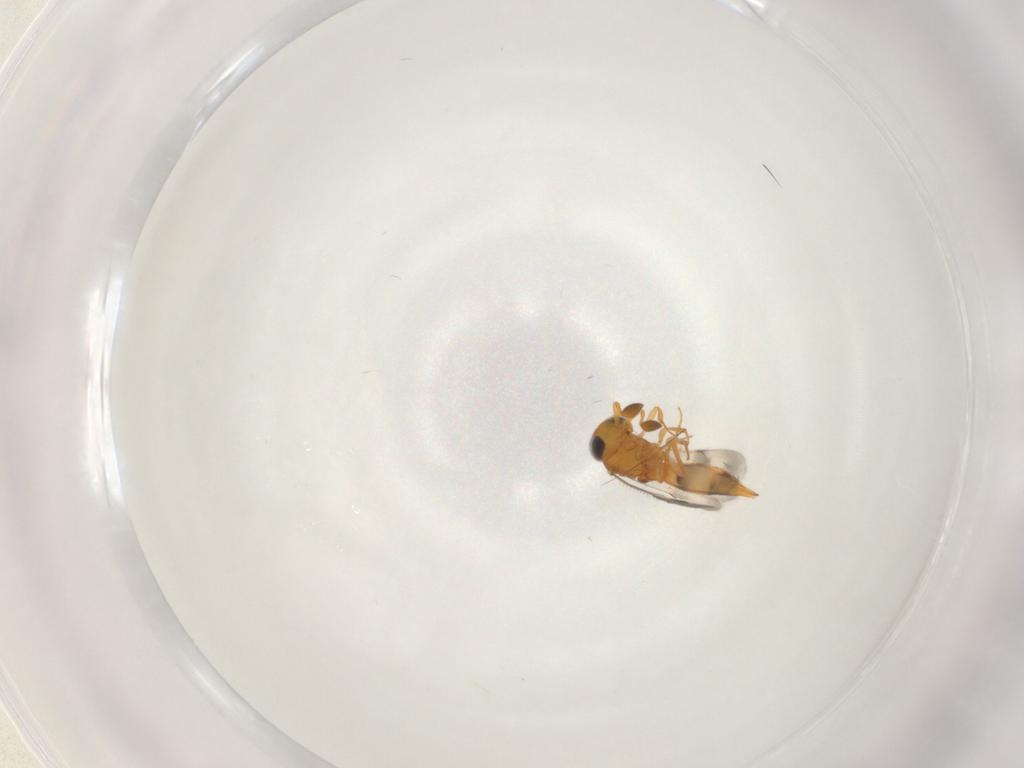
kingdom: Animalia
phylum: Arthropoda
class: Insecta
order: Hymenoptera
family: Scelionidae
